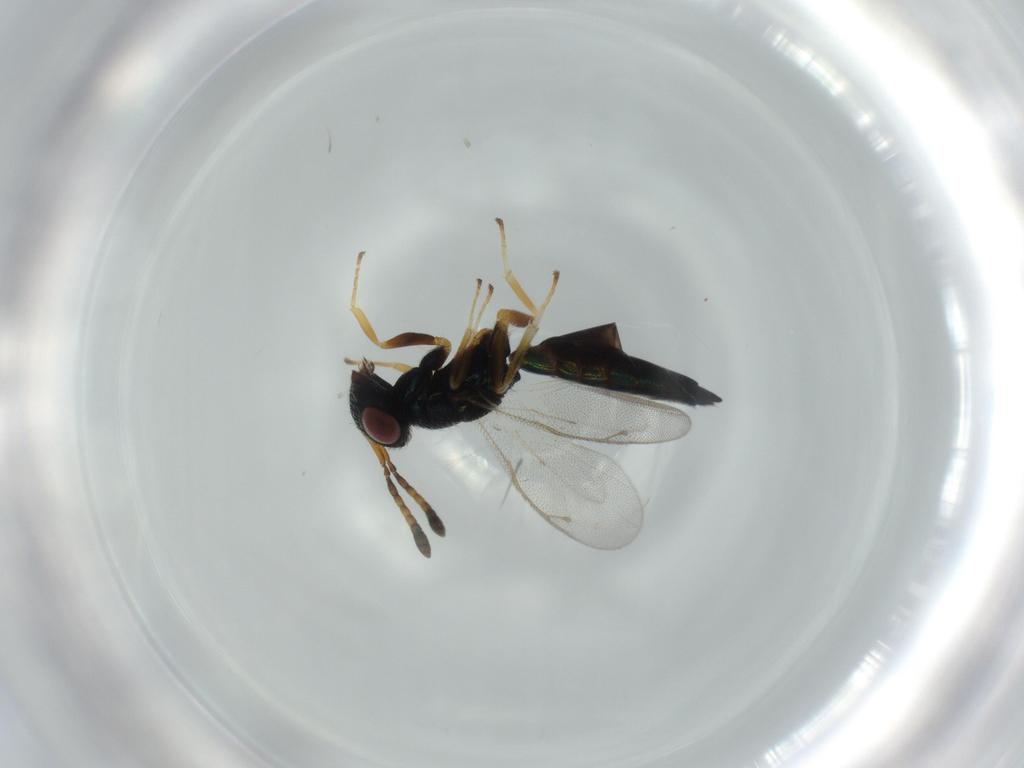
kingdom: Animalia
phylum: Arthropoda
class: Insecta
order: Hymenoptera
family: Pteromalidae
